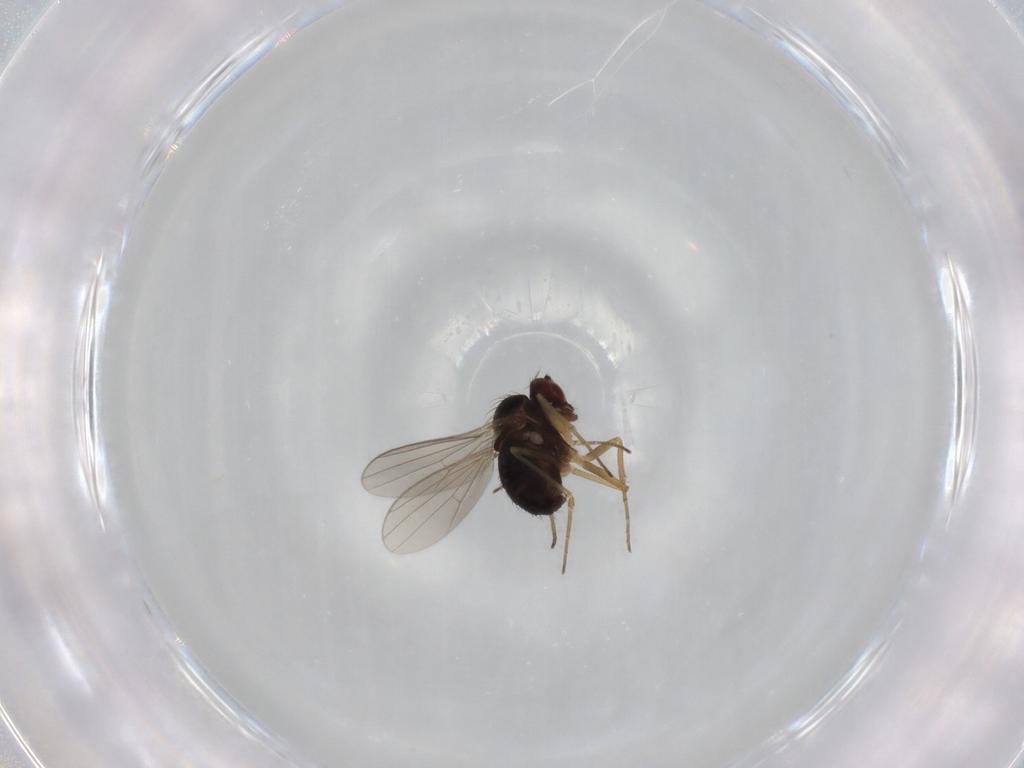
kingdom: Animalia
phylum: Arthropoda
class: Insecta
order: Diptera
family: Dolichopodidae
